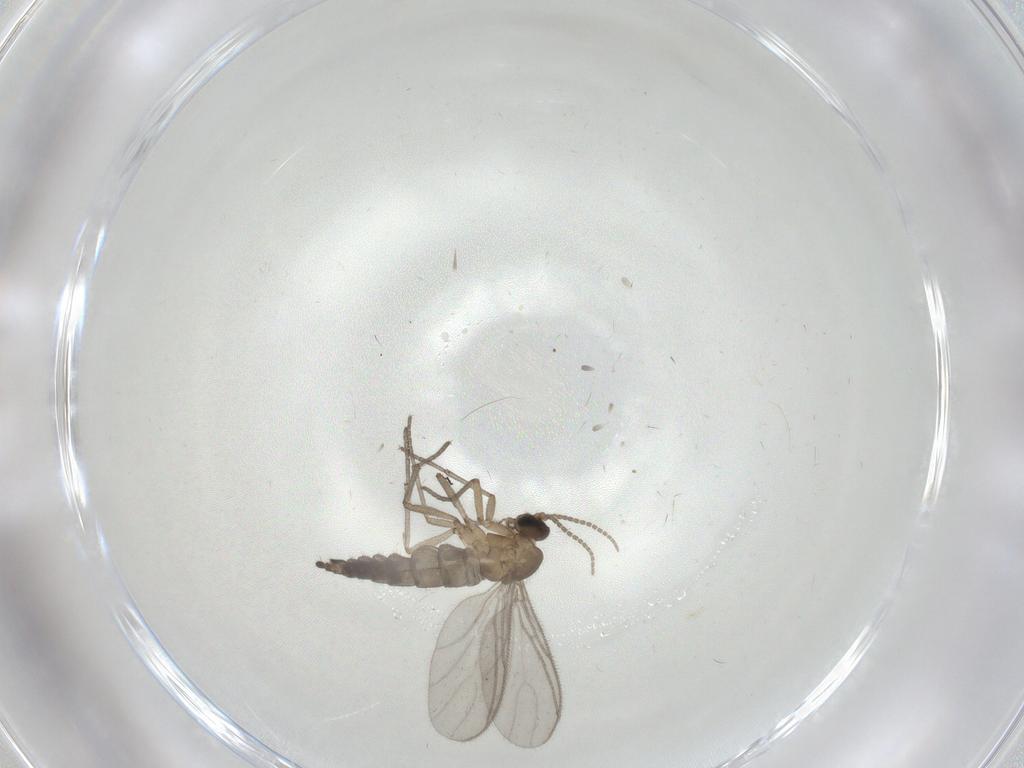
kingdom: Animalia
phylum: Arthropoda
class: Insecta
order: Diptera
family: Sciaridae
